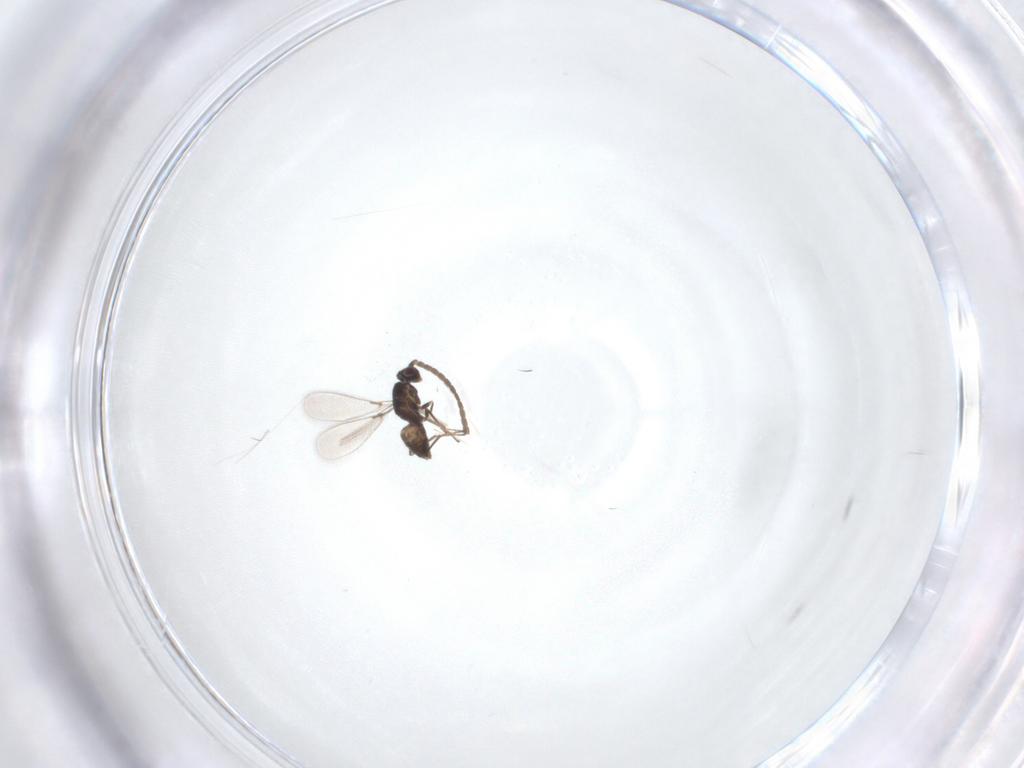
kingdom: Animalia
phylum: Arthropoda
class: Insecta
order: Hymenoptera
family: Mymaridae
